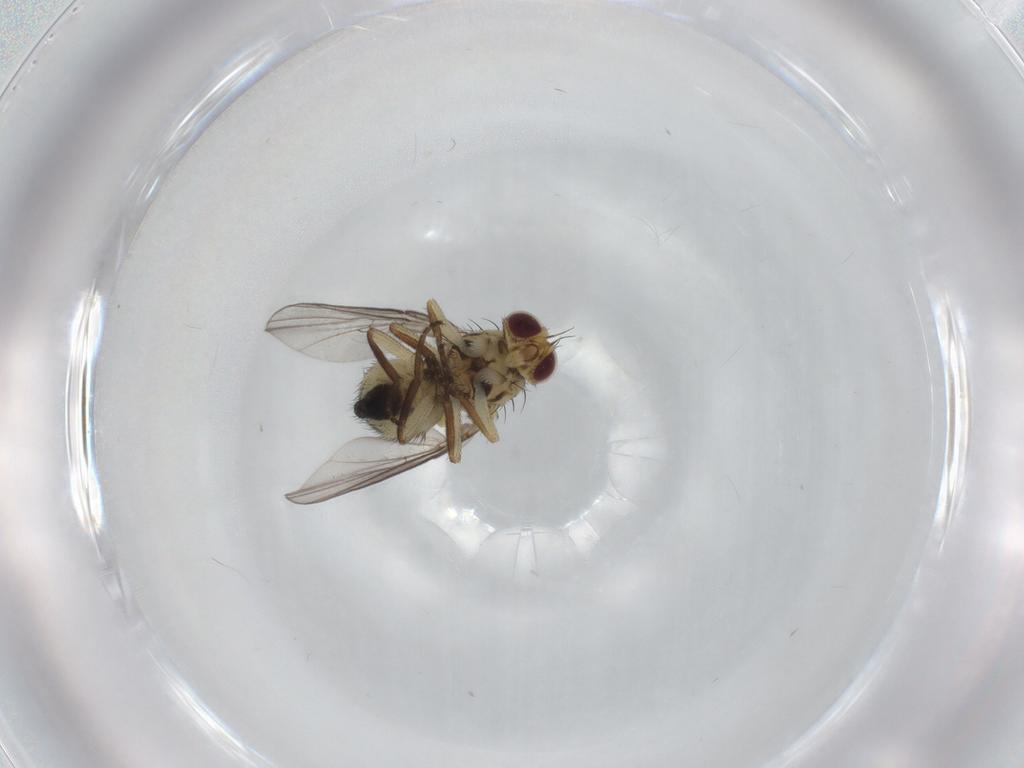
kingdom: Animalia
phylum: Arthropoda
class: Insecta
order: Diptera
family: Agromyzidae
